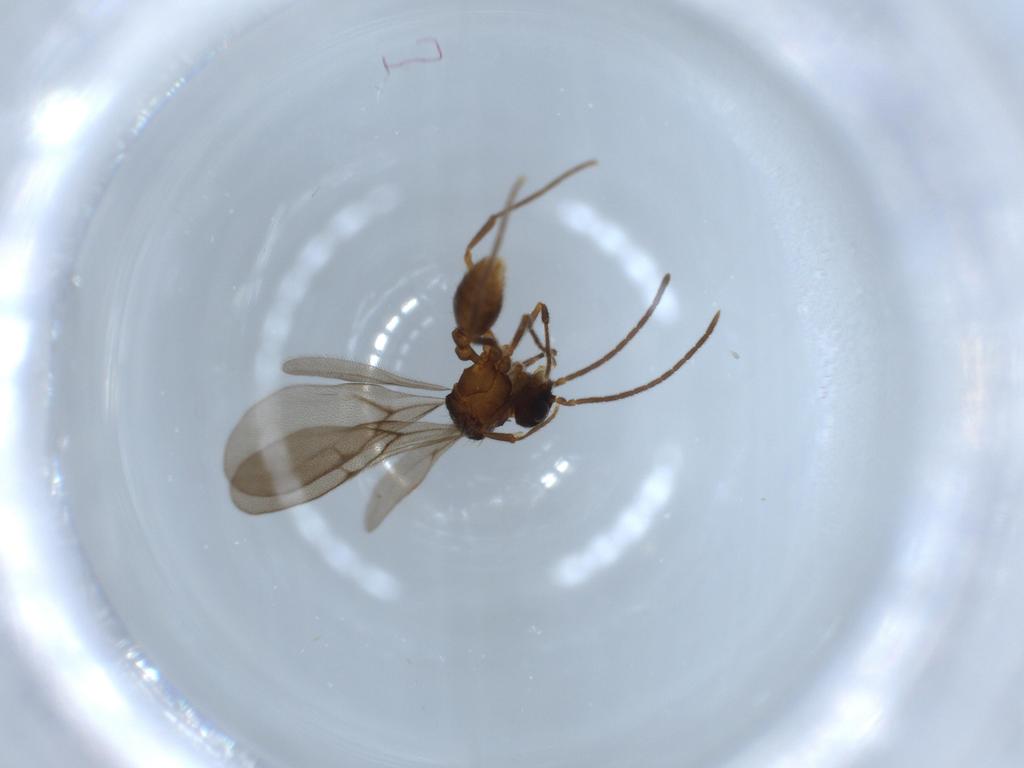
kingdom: Animalia
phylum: Arthropoda
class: Insecta
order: Hymenoptera
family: Formicidae
